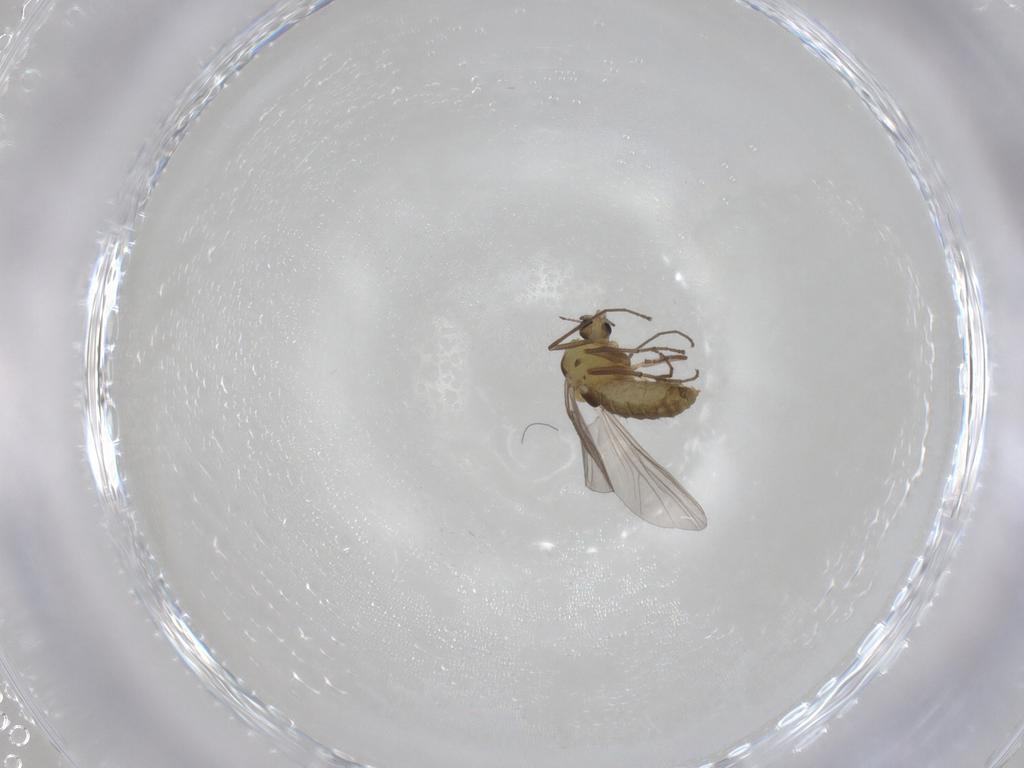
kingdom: Animalia
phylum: Arthropoda
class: Insecta
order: Diptera
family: Chironomidae
